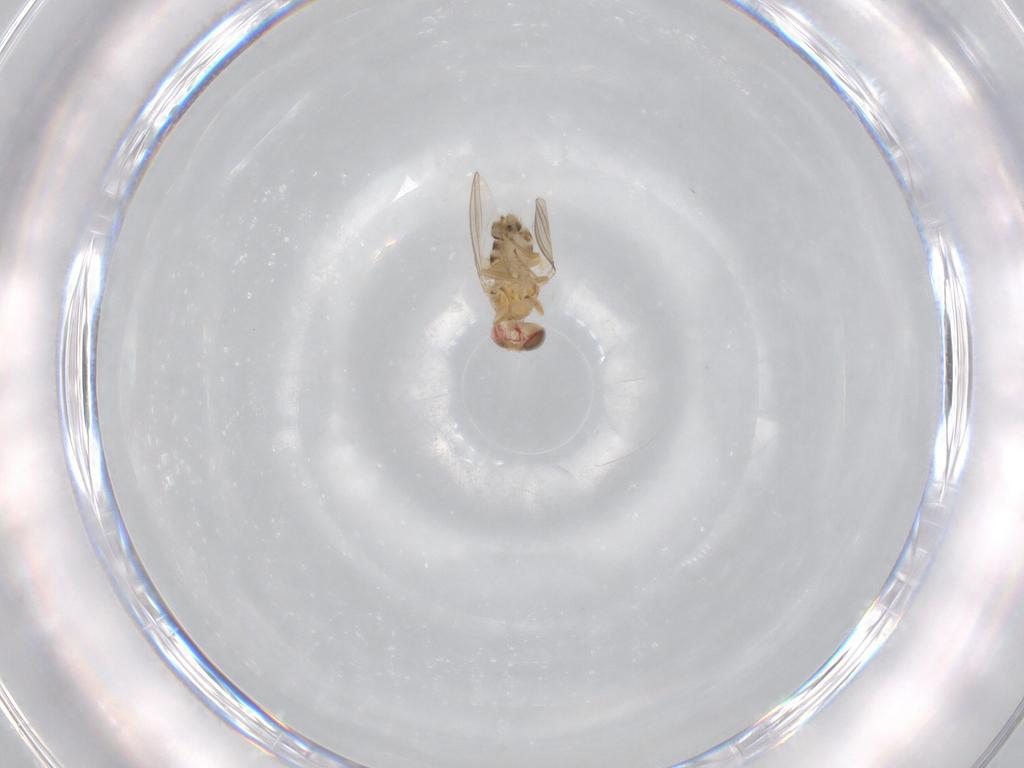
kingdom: Animalia
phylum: Arthropoda
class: Insecta
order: Diptera
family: Chyromyidae
